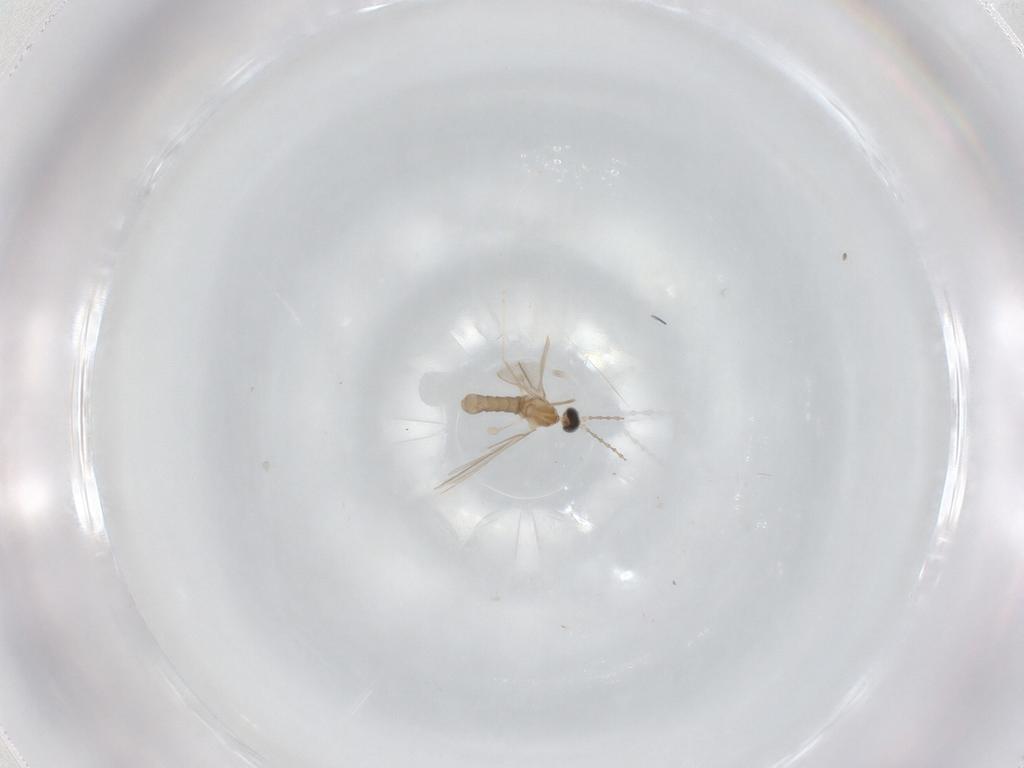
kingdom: Animalia
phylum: Arthropoda
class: Insecta
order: Diptera
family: Cecidomyiidae
